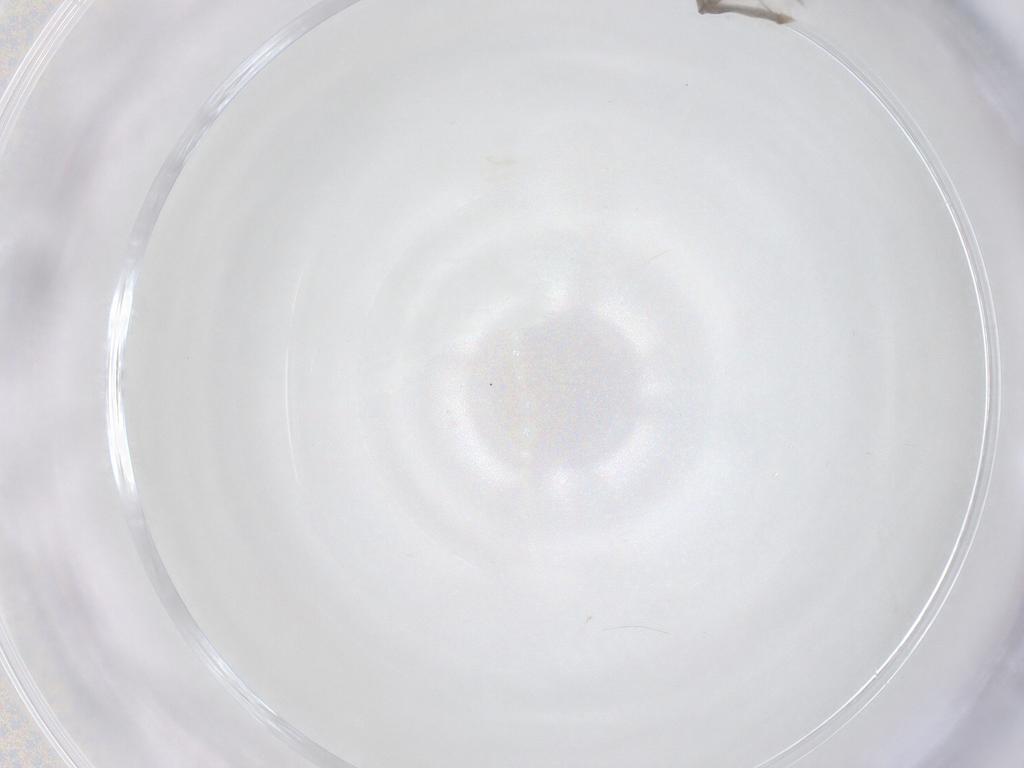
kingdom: Animalia
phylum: Arthropoda
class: Insecta
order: Diptera
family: Cecidomyiidae
